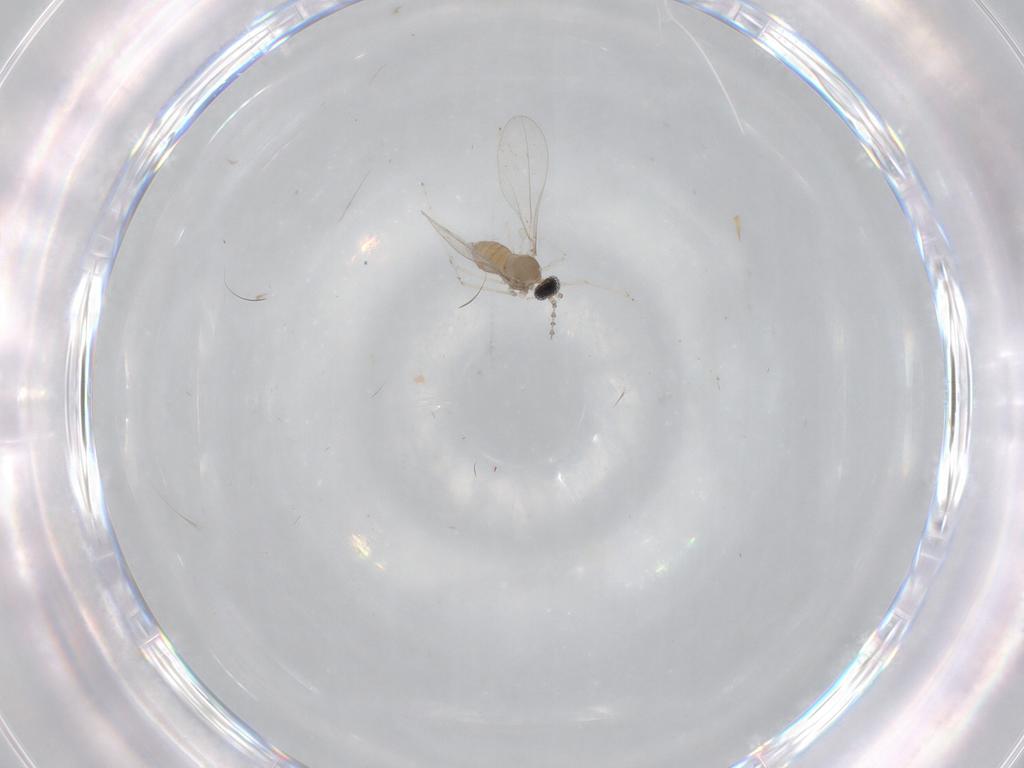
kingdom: Animalia
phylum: Arthropoda
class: Insecta
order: Diptera
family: Cecidomyiidae
